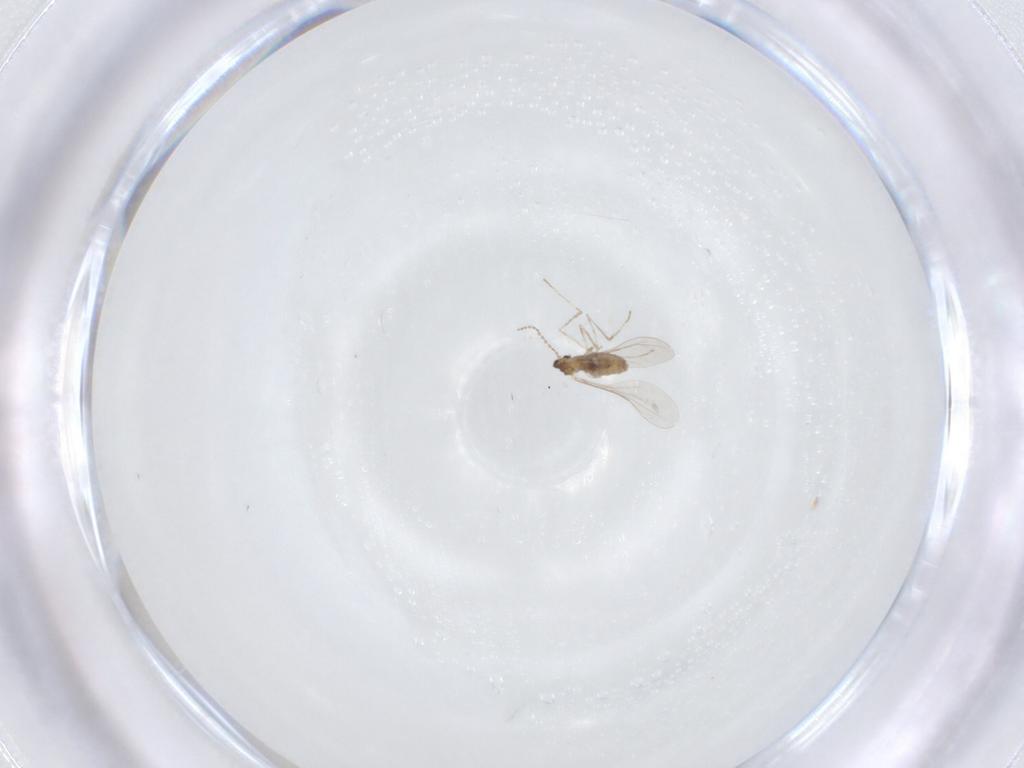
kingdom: Animalia
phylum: Arthropoda
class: Insecta
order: Diptera
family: Cecidomyiidae
